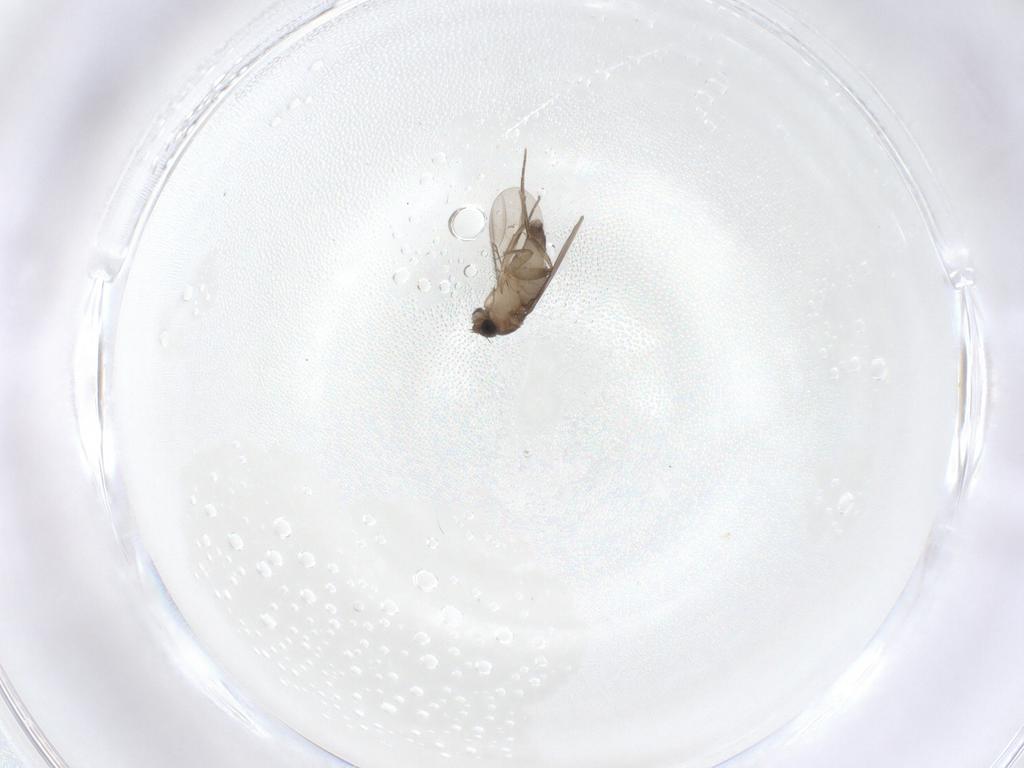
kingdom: Animalia
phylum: Arthropoda
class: Insecta
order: Diptera
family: Phoridae
